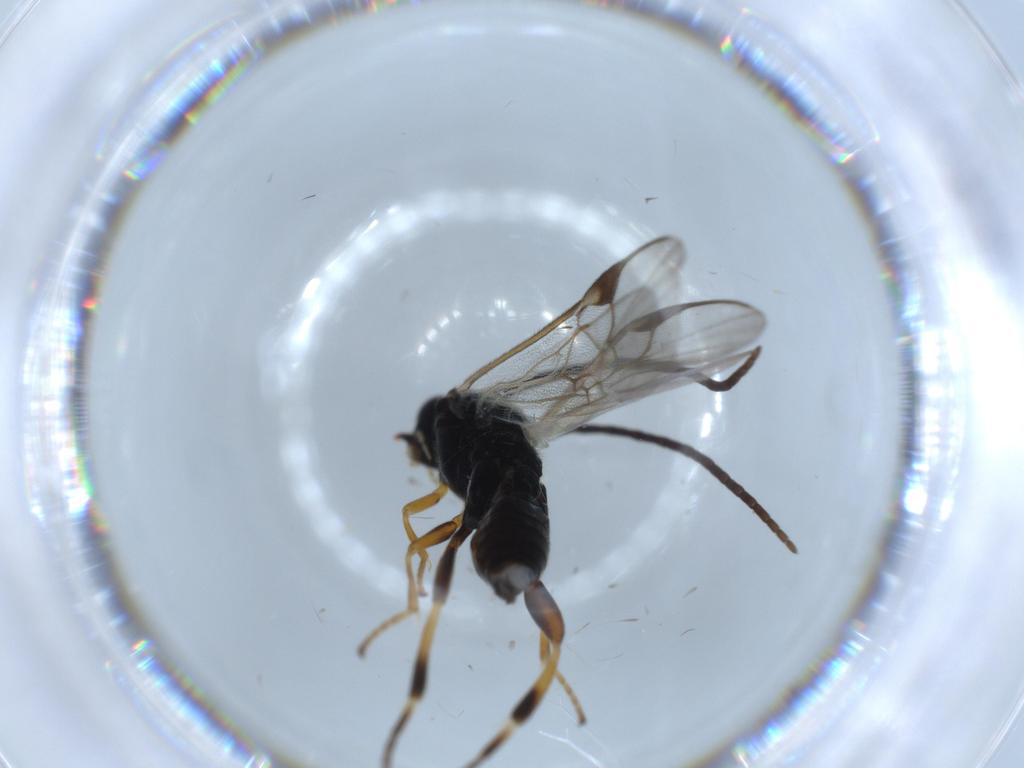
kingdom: Animalia
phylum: Arthropoda
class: Insecta
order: Hymenoptera
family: Braconidae
